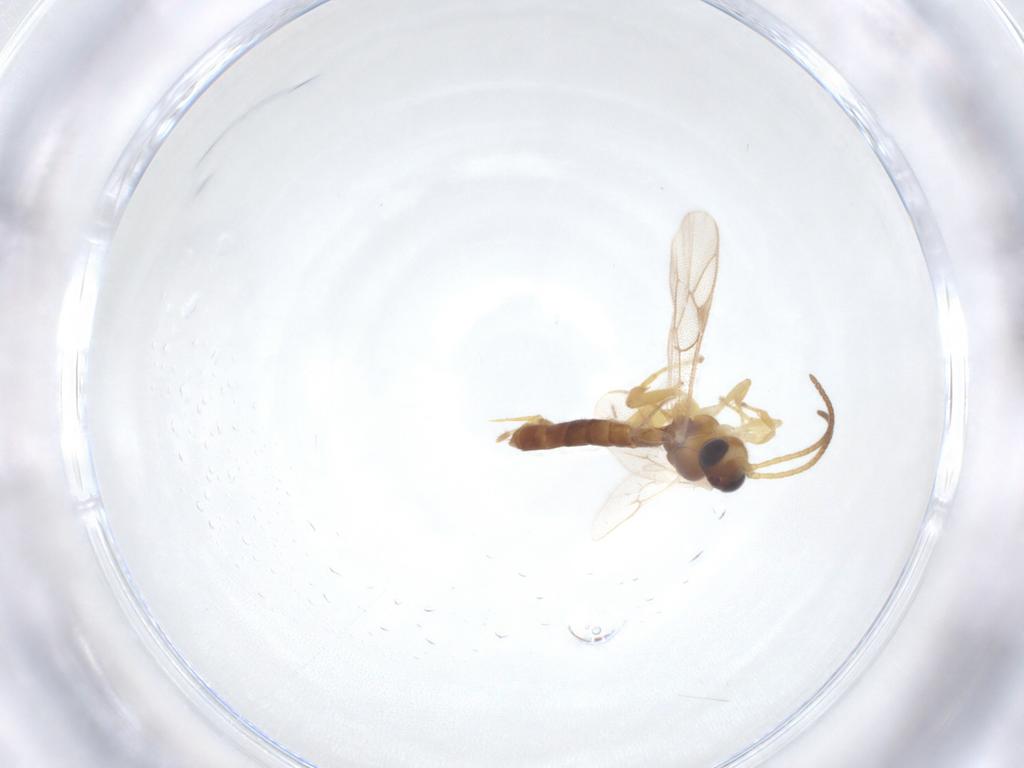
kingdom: Animalia
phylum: Arthropoda
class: Insecta
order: Hymenoptera
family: Ichneumonidae
